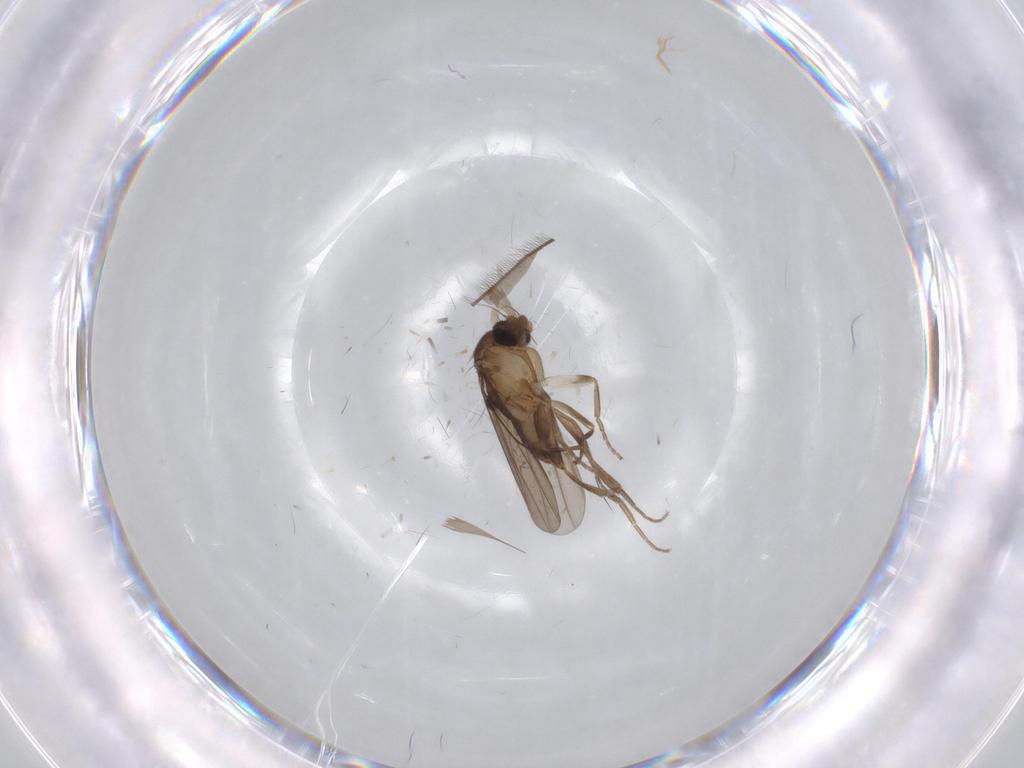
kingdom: Animalia
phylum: Arthropoda
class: Insecta
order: Diptera
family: Limoniidae
